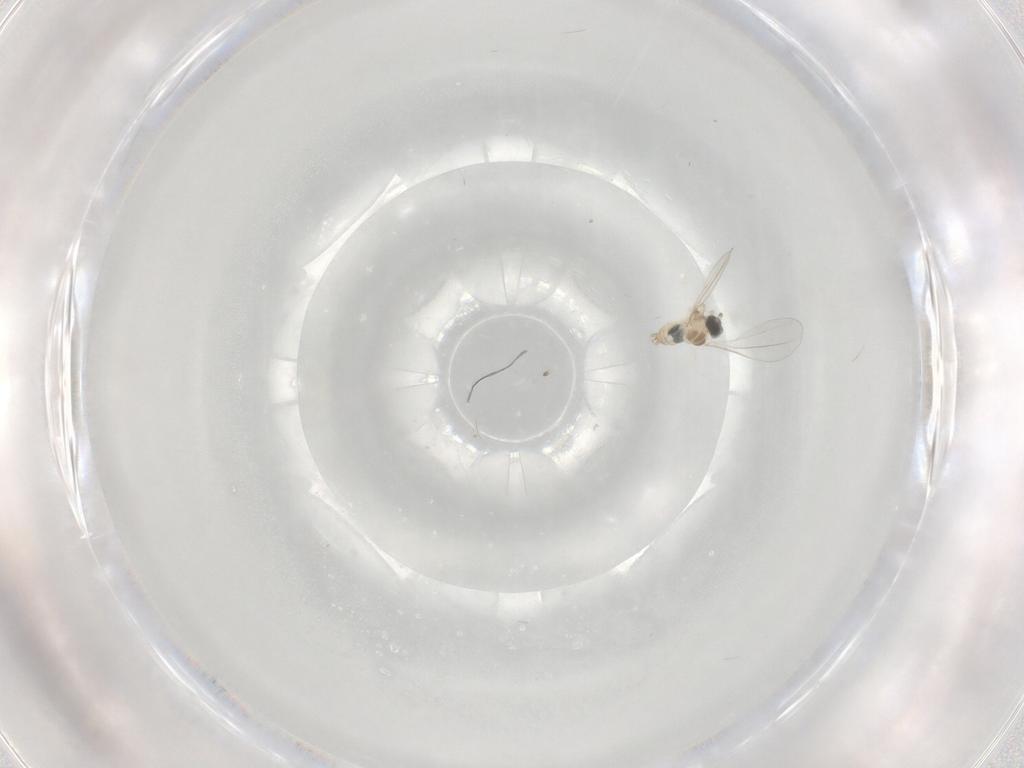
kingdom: Animalia
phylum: Arthropoda
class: Insecta
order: Diptera
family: Cecidomyiidae
